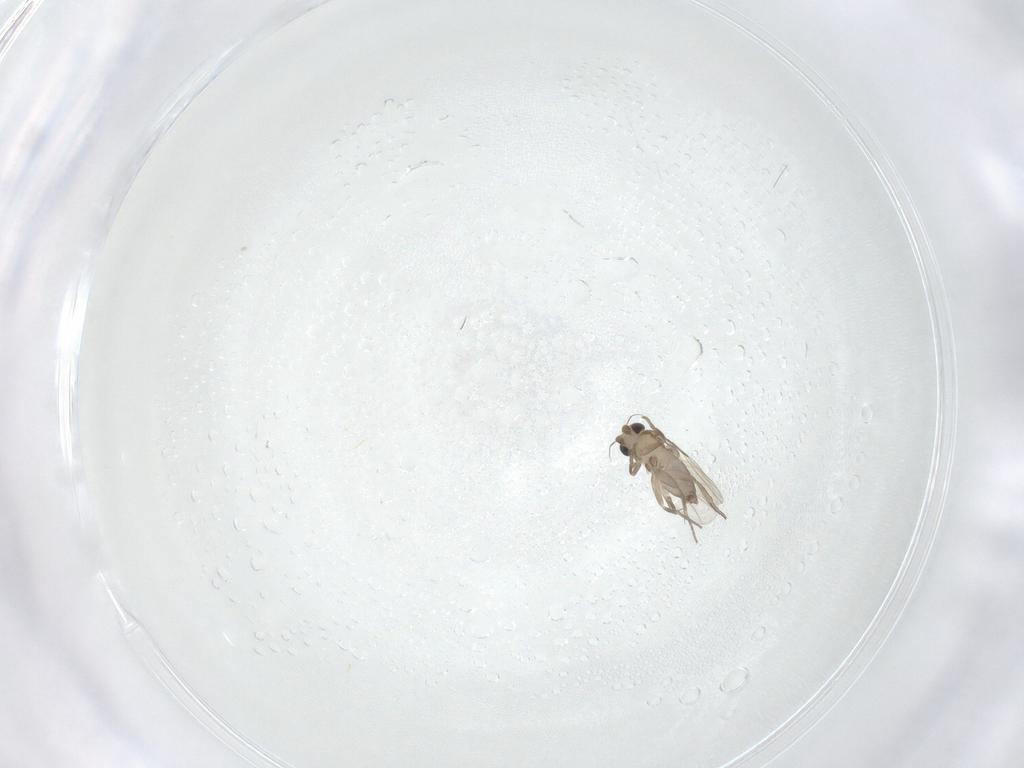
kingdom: Animalia
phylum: Arthropoda
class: Insecta
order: Diptera
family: Phoridae
